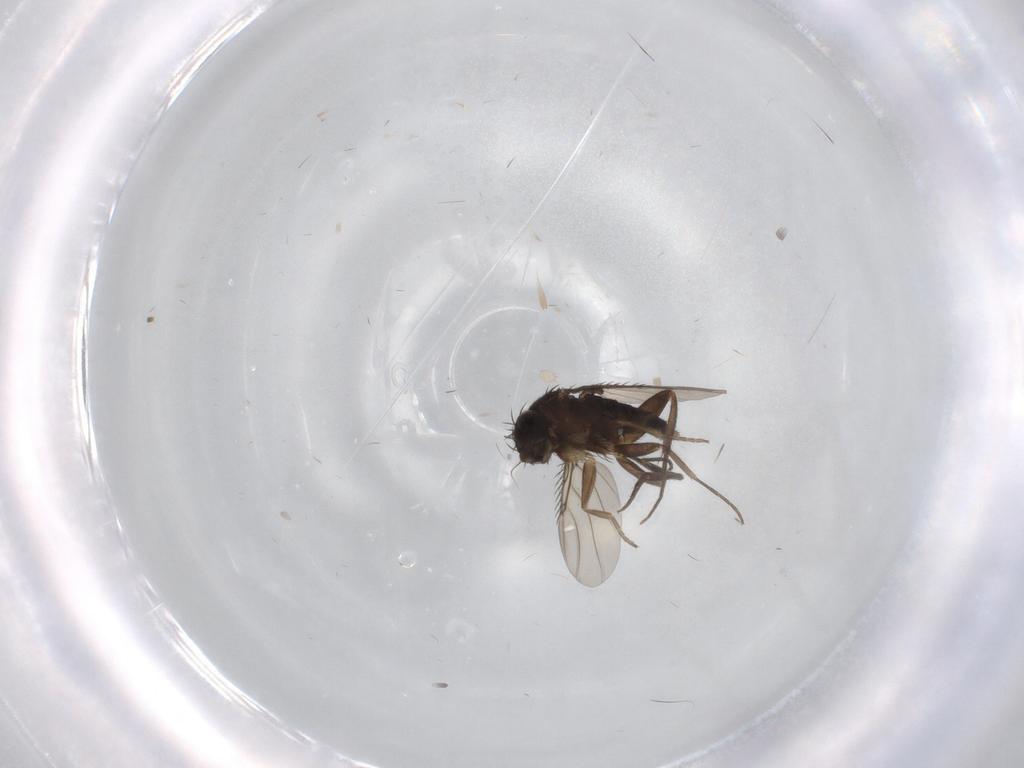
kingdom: Animalia
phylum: Arthropoda
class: Insecta
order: Diptera
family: Phoridae
